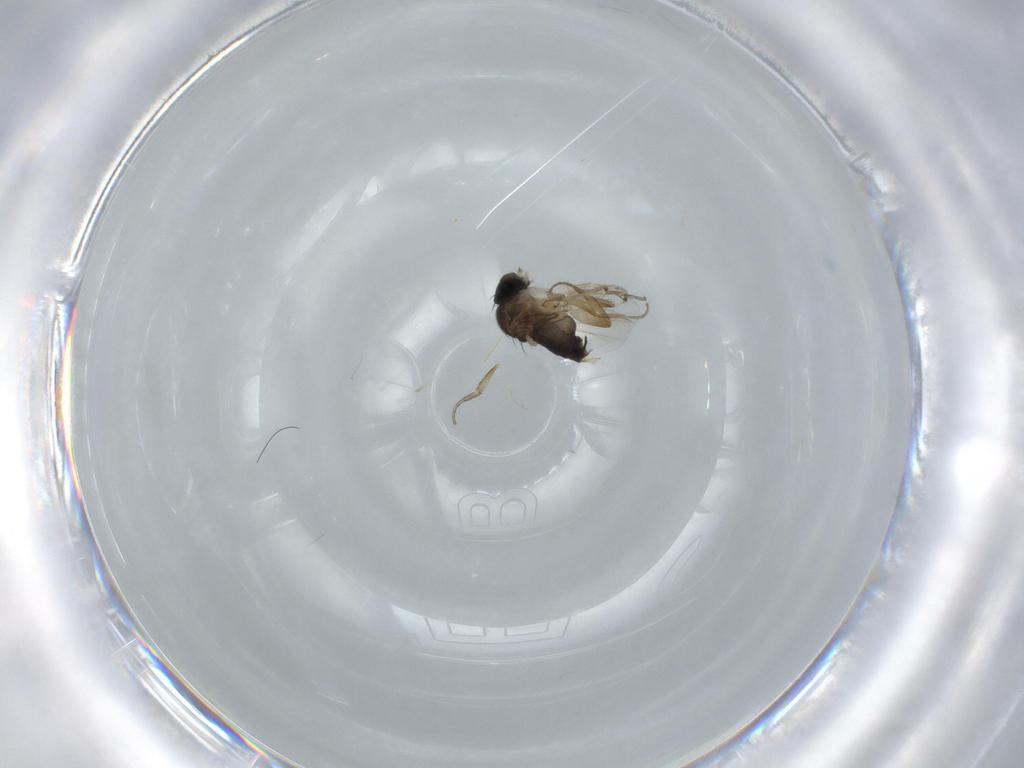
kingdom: Animalia
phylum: Arthropoda
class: Insecta
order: Diptera
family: Phoridae
